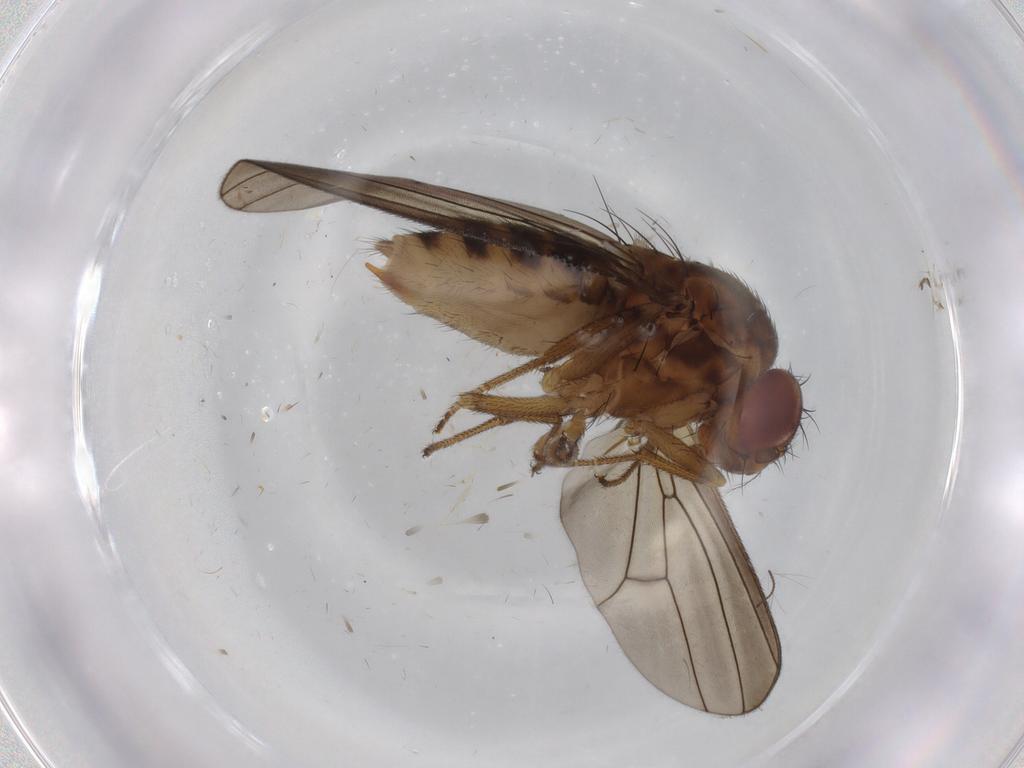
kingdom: Animalia
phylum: Arthropoda
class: Insecta
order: Diptera
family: Drosophilidae
